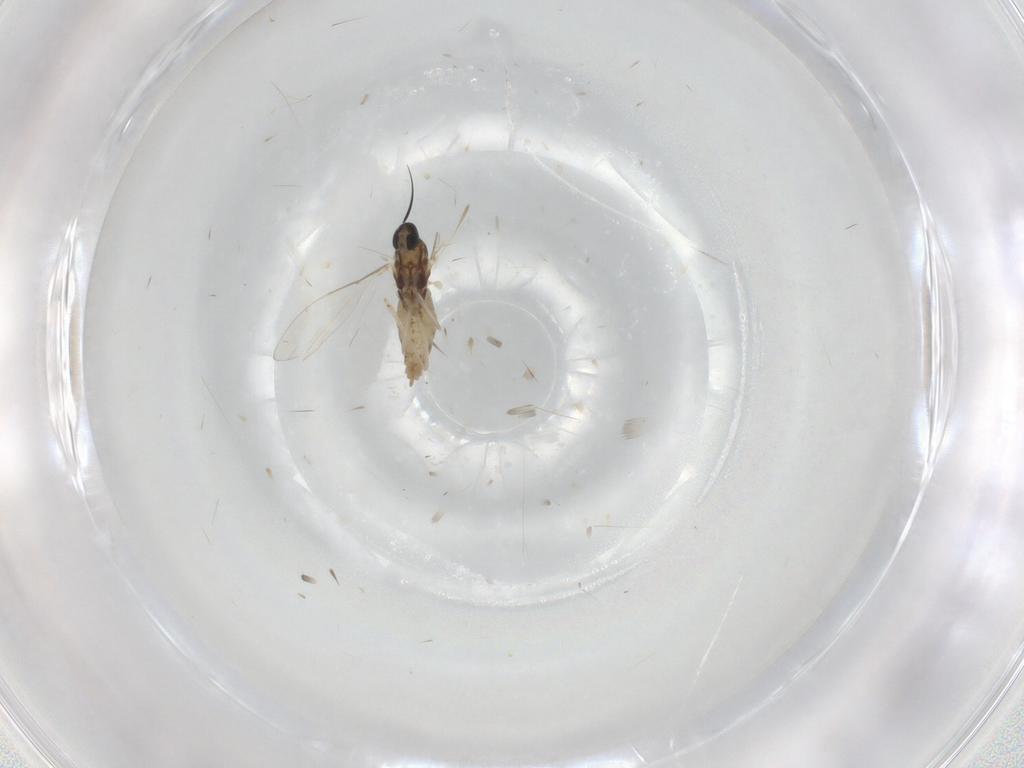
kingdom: Animalia
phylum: Arthropoda
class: Insecta
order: Diptera
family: Cecidomyiidae
